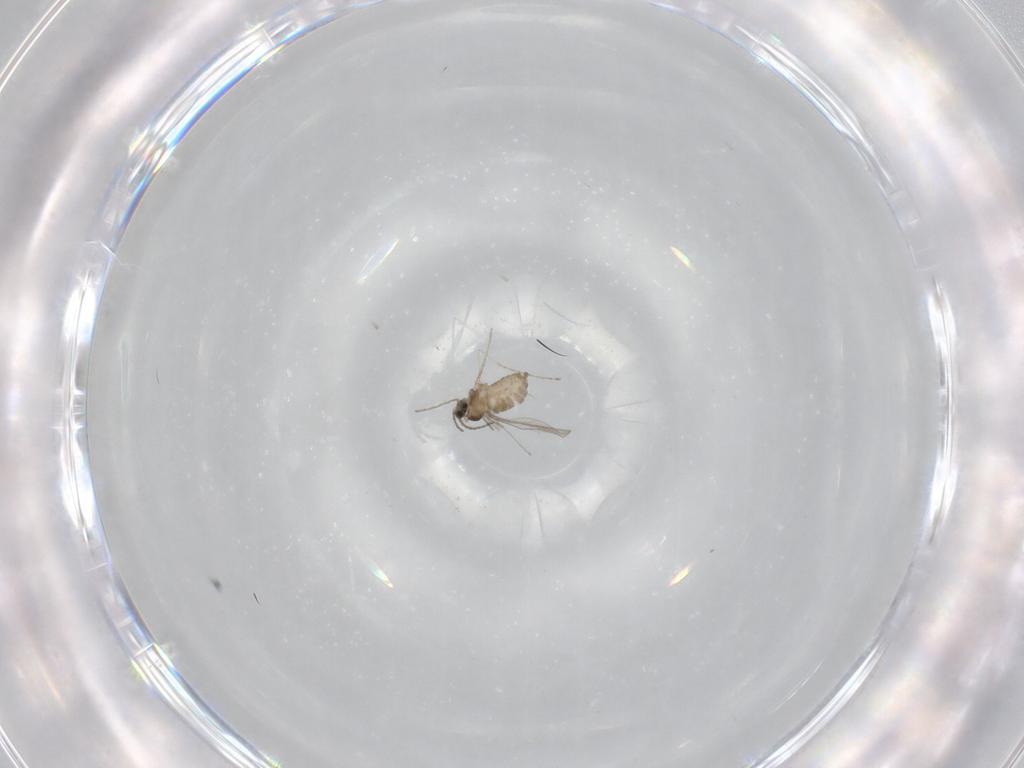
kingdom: Animalia
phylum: Arthropoda
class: Insecta
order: Diptera
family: Cecidomyiidae
